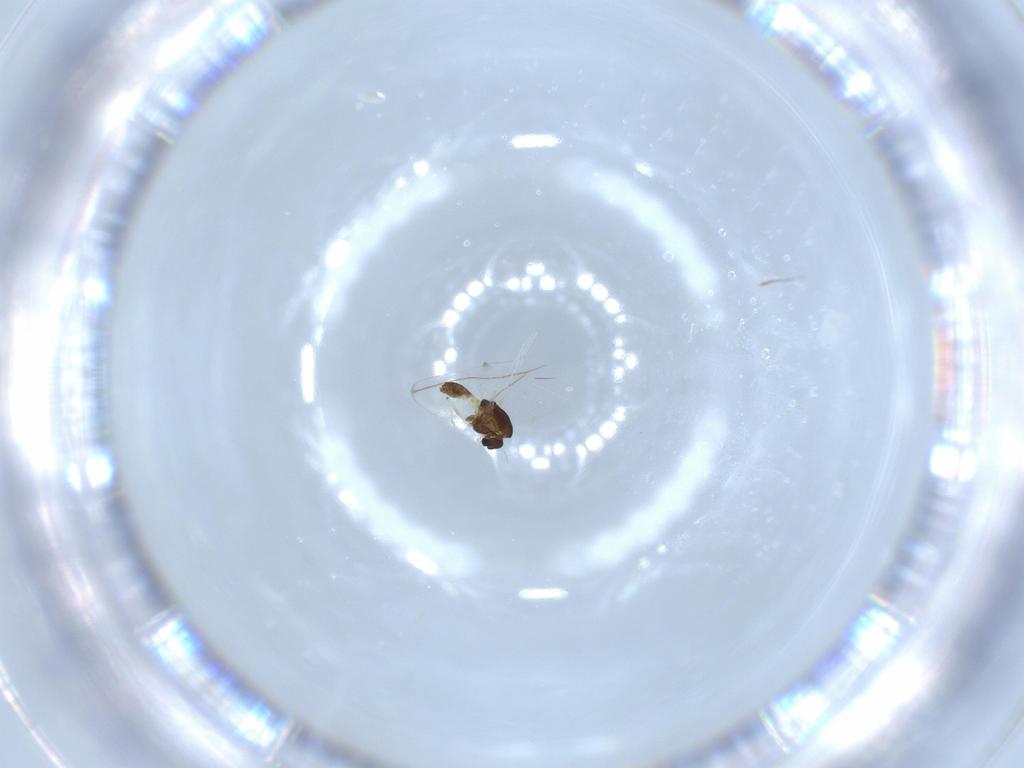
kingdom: Animalia
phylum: Arthropoda
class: Insecta
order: Diptera
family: Chironomidae
